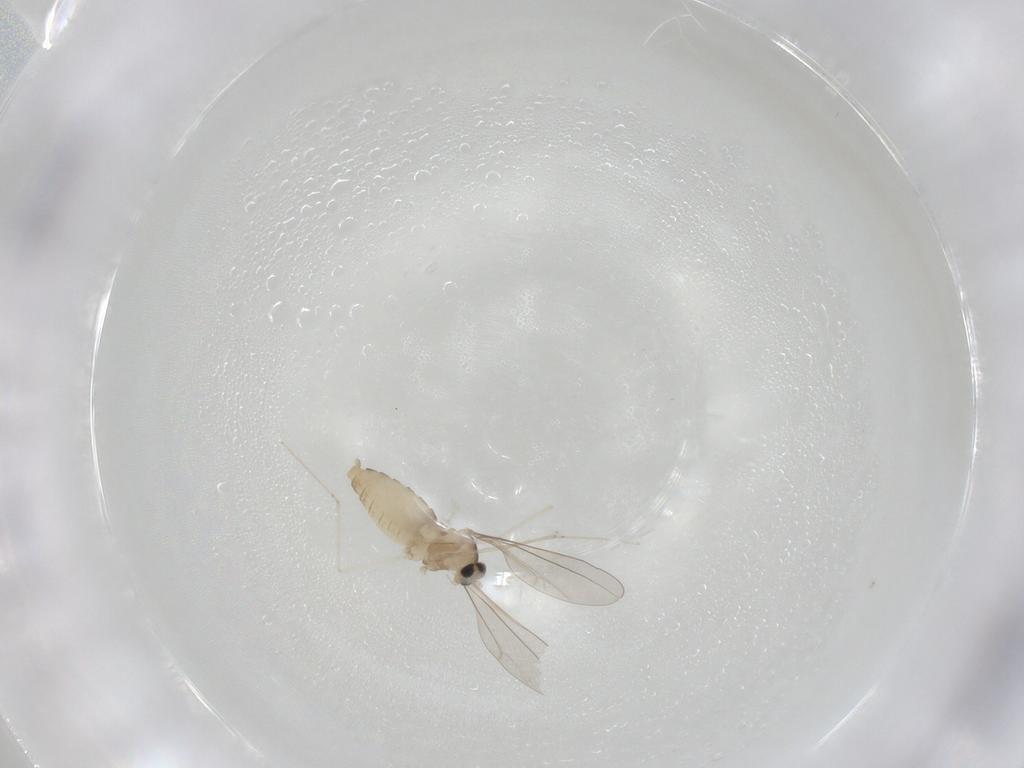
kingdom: Animalia
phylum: Arthropoda
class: Insecta
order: Diptera
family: Cecidomyiidae
